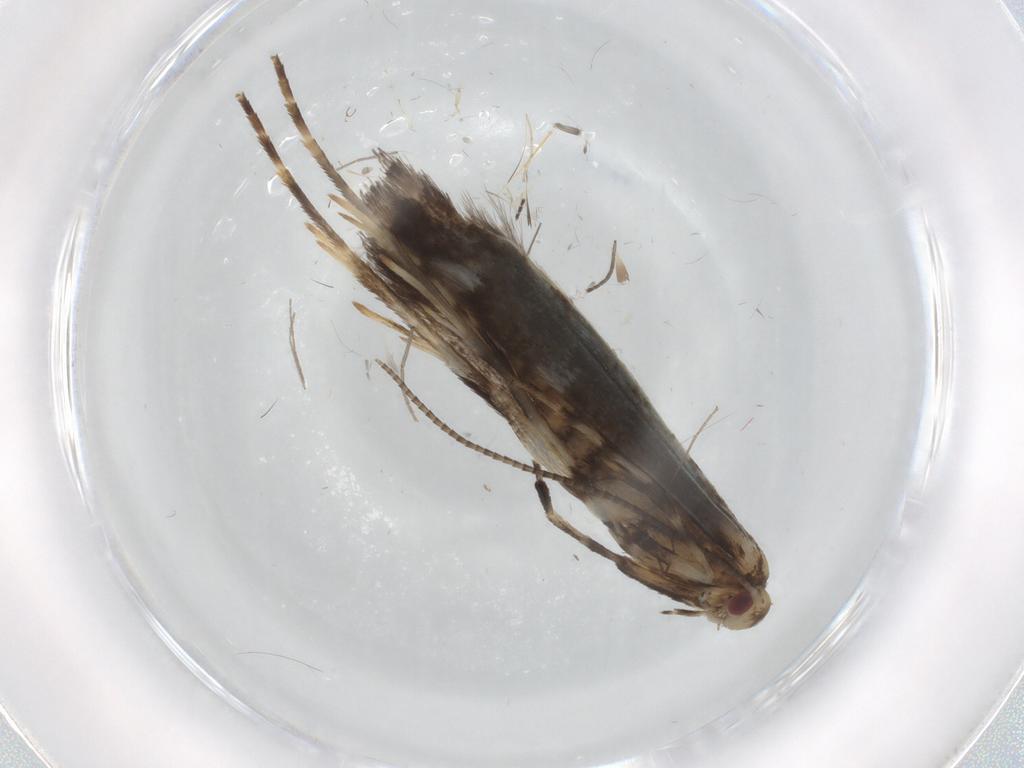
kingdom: Animalia
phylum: Arthropoda
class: Insecta
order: Lepidoptera
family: Gracillariidae
